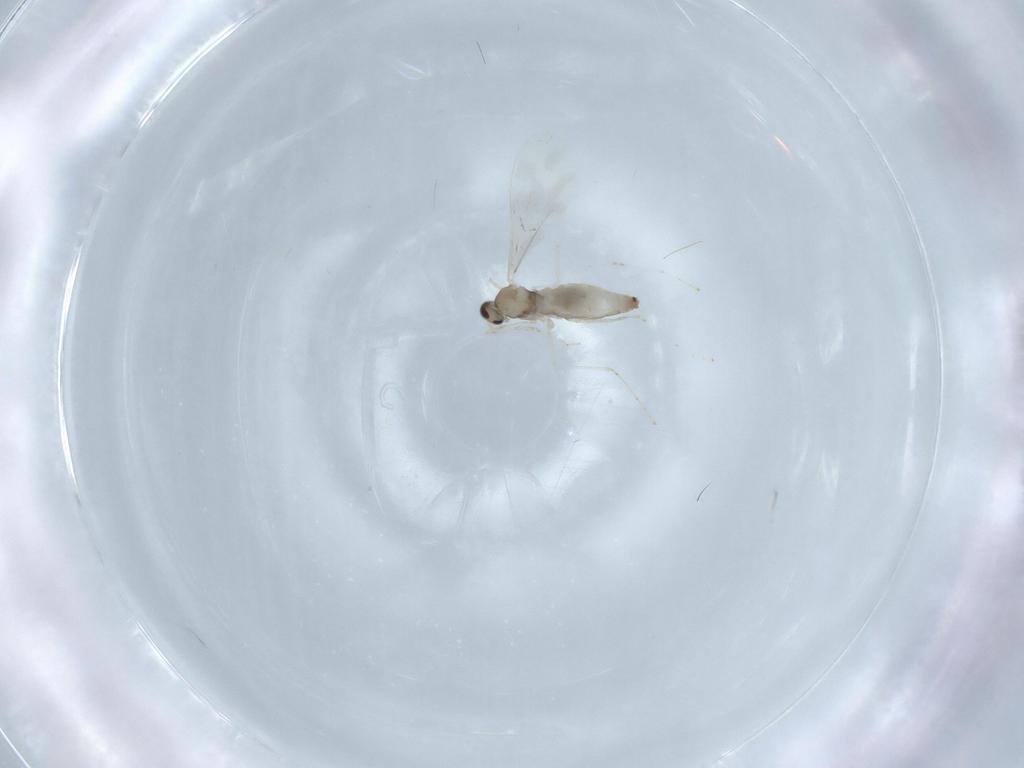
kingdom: Animalia
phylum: Arthropoda
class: Insecta
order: Diptera
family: Cecidomyiidae
